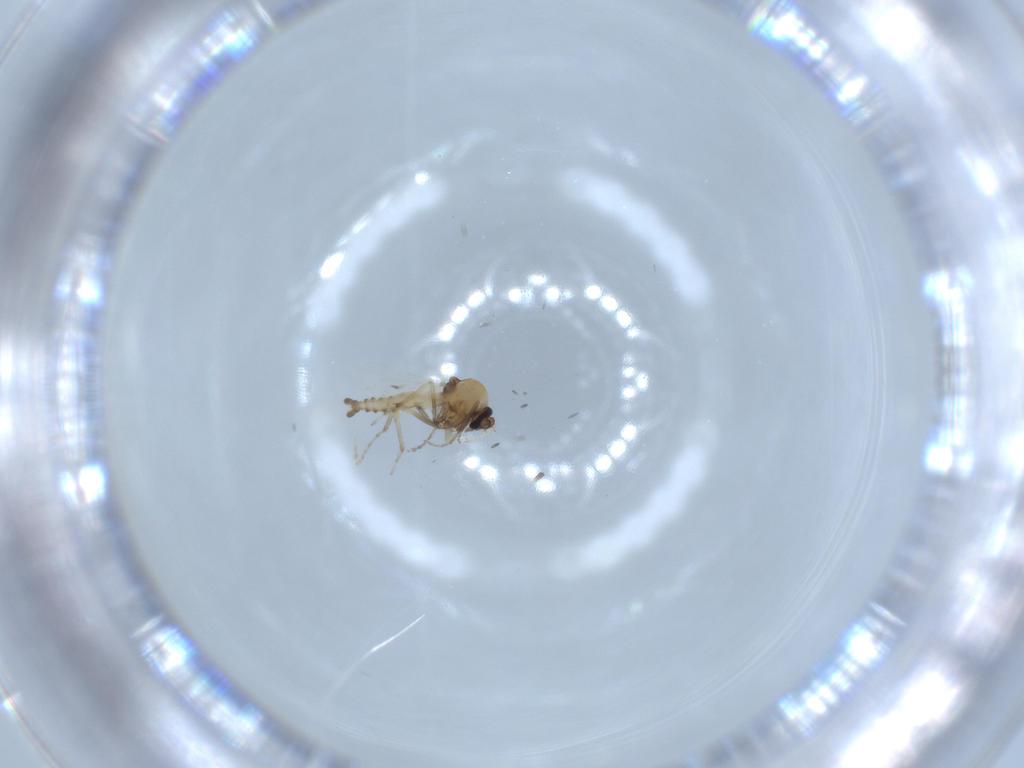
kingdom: Animalia
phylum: Arthropoda
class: Insecta
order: Diptera
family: Ceratopogonidae
